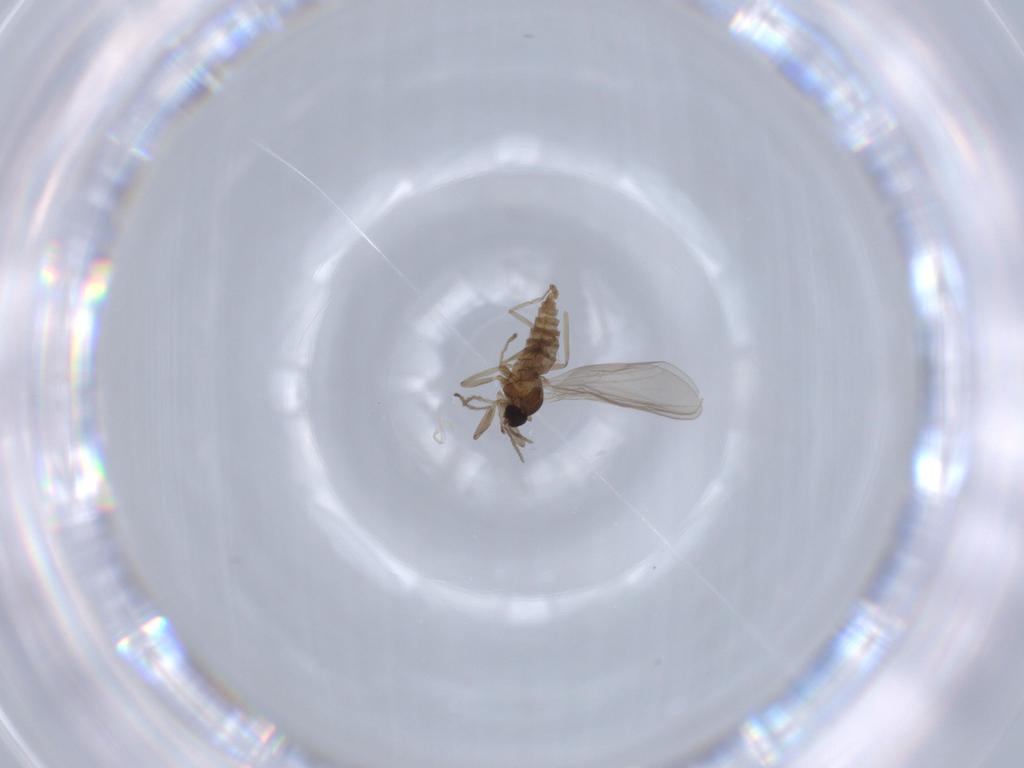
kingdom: Animalia
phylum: Arthropoda
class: Insecta
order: Diptera
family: Cecidomyiidae
